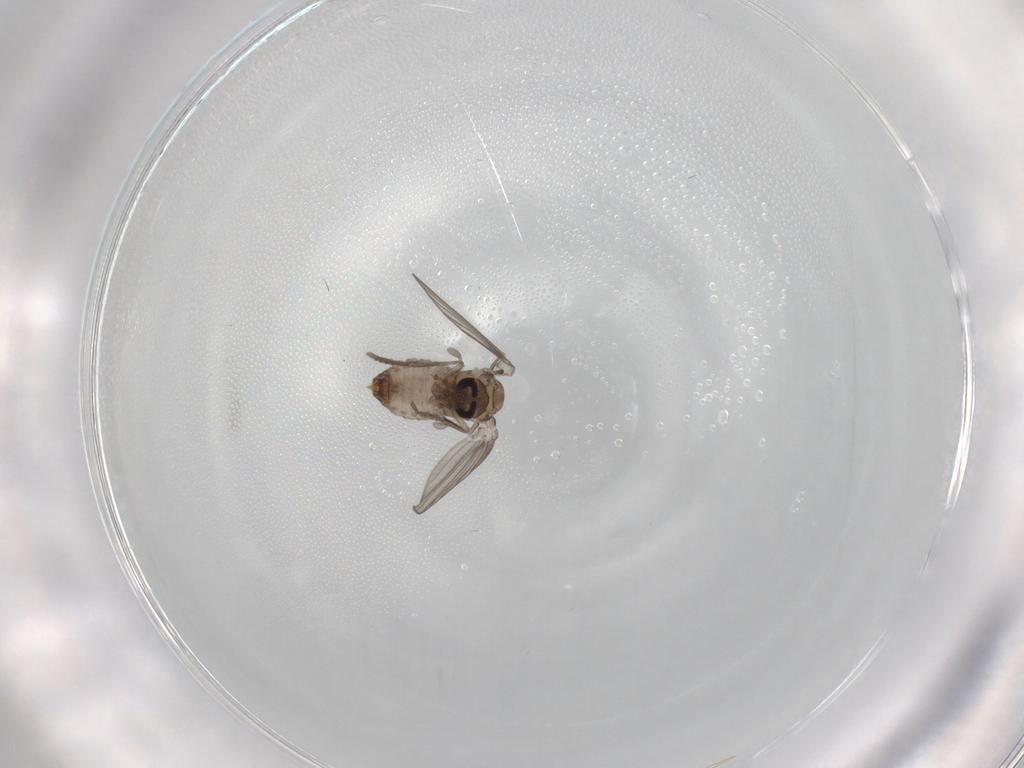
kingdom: Animalia
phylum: Arthropoda
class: Insecta
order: Diptera
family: Psychodidae
